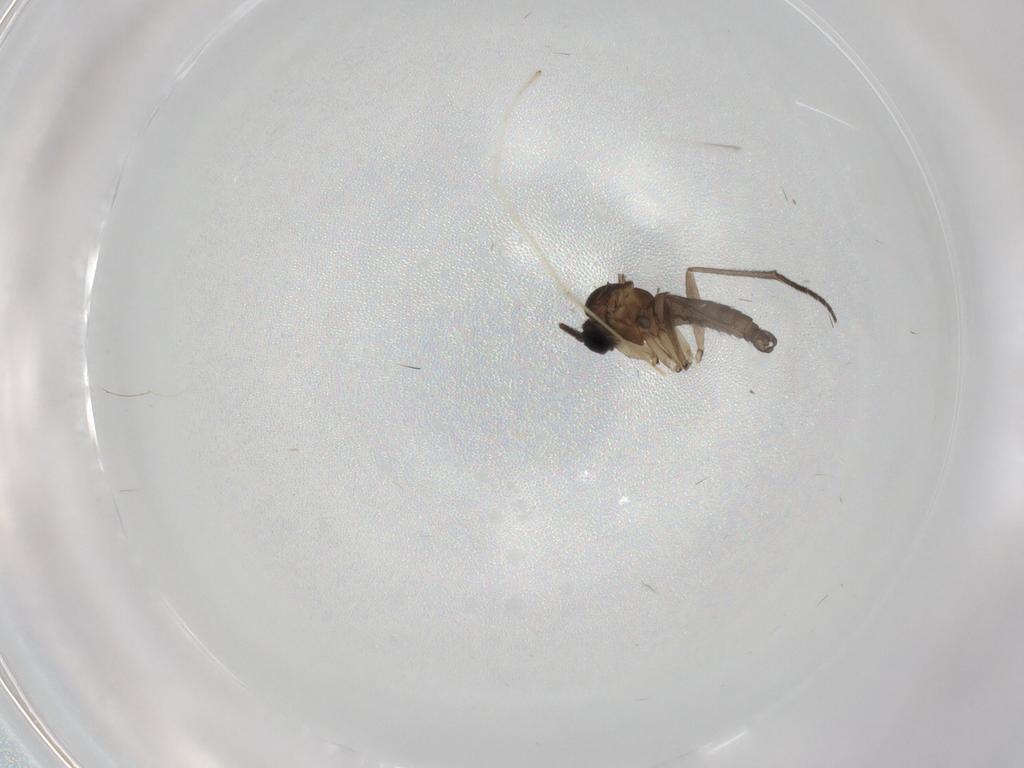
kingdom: Animalia
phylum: Arthropoda
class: Insecta
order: Diptera
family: Sciaridae
